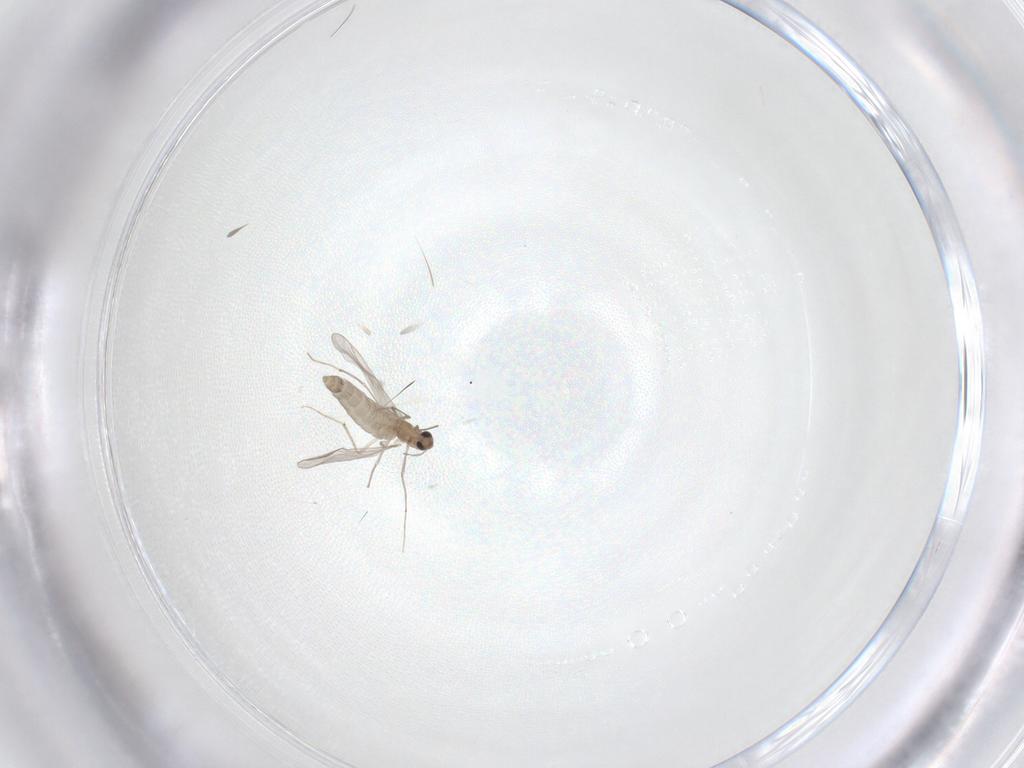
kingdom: Animalia
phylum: Arthropoda
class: Insecta
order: Diptera
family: Chironomidae
